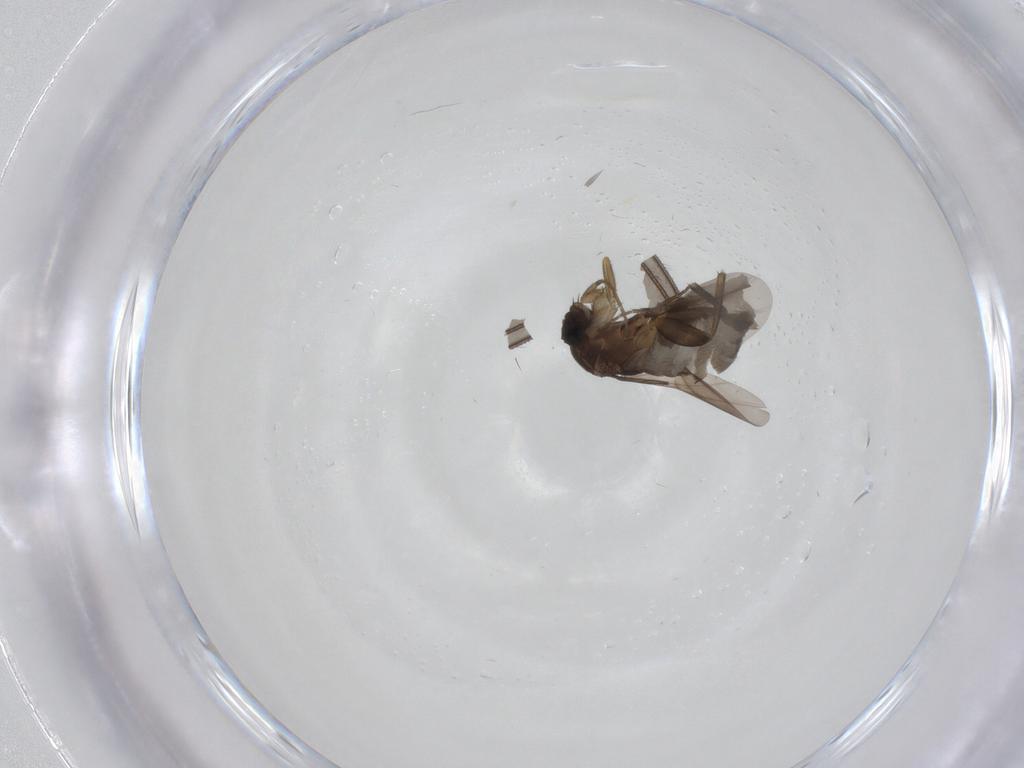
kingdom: Animalia
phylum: Arthropoda
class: Insecta
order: Diptera
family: Phoridae
